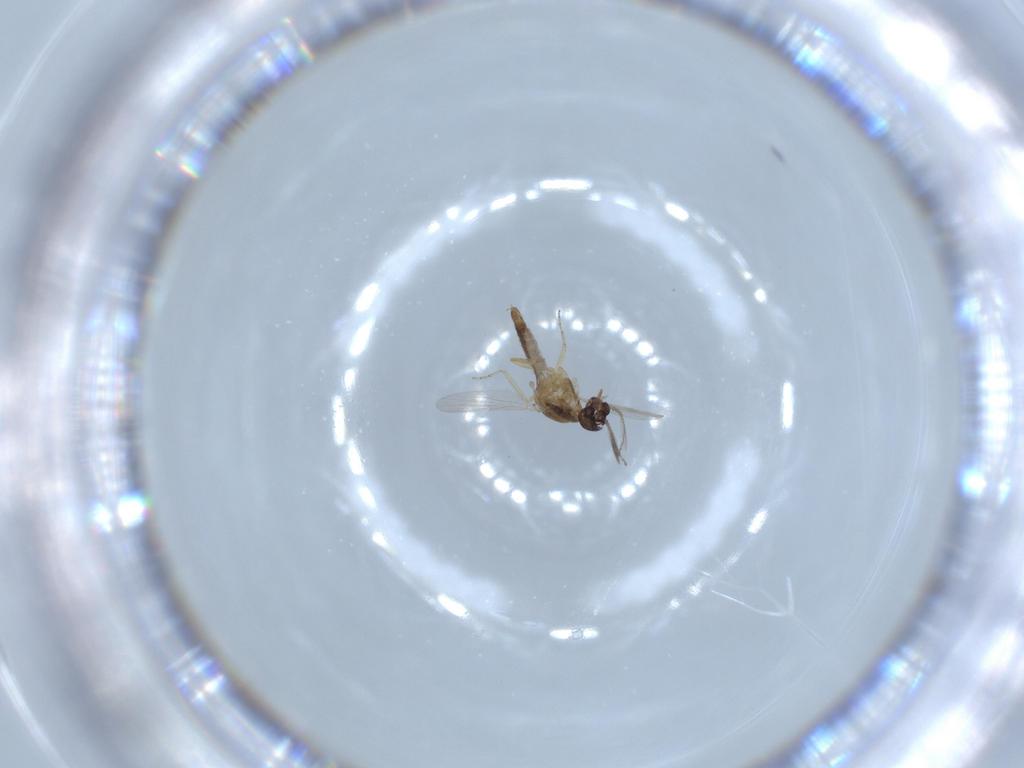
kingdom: Animalia
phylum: Arthropoda
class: Insecta
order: Diptera
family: Ceratopogonidae
